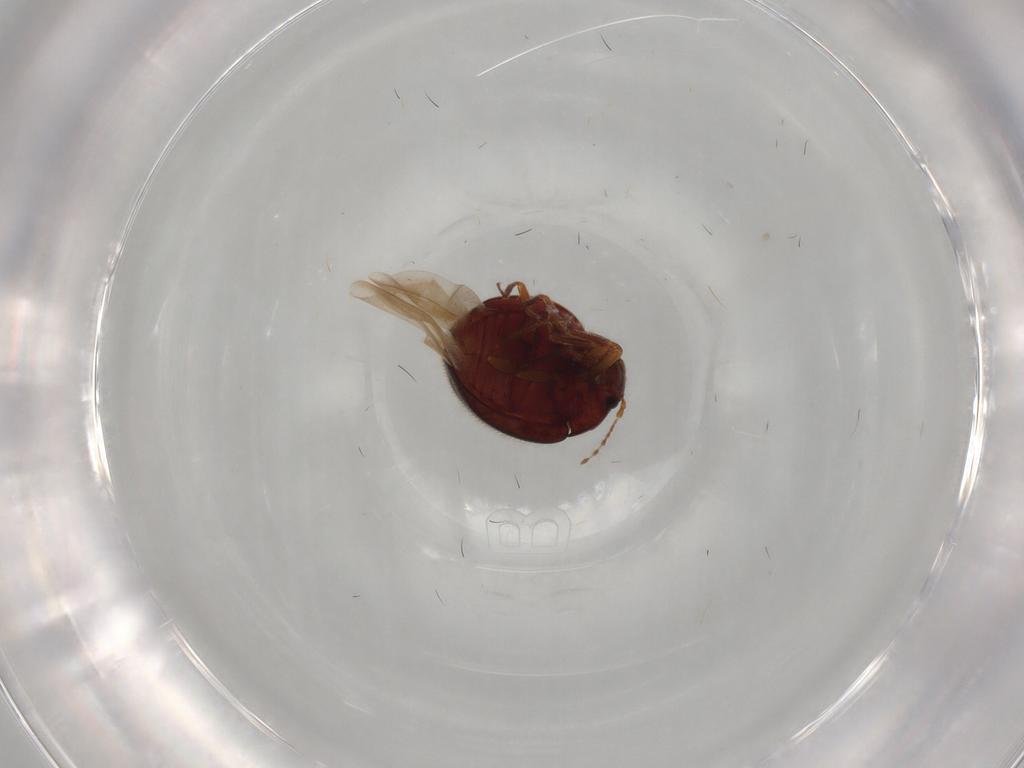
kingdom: Animalia
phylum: Arthropoda
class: Insecta
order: Coleoptera
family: Anamorphidae
